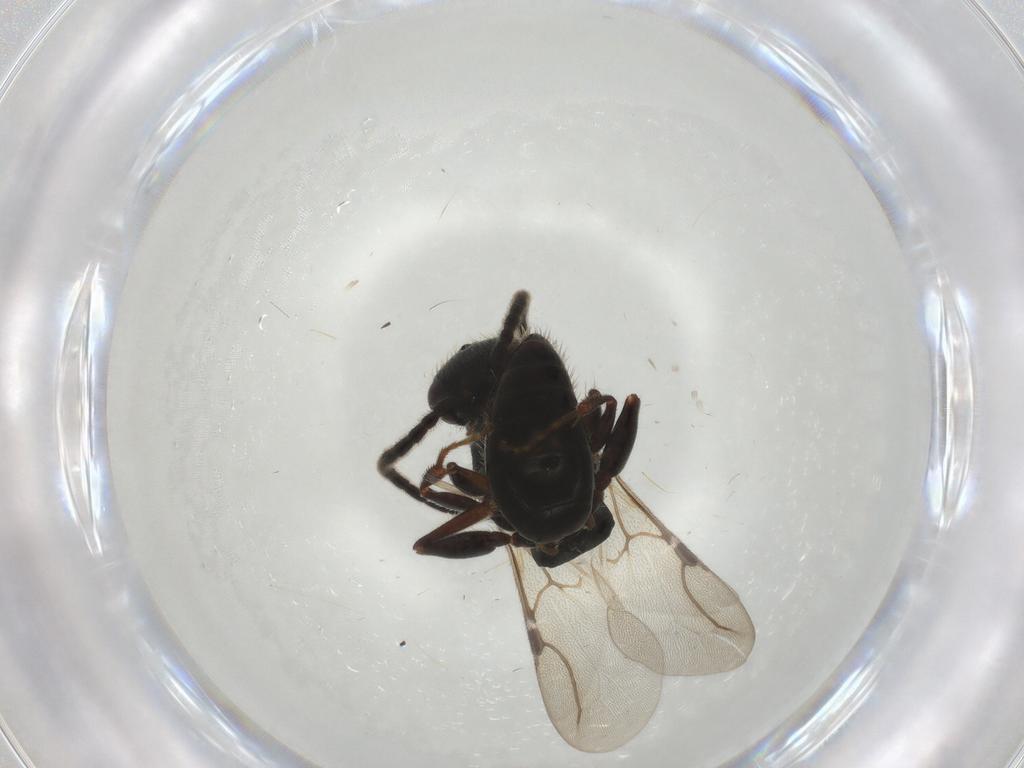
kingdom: Animalia
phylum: Arthropoda
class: Insecta
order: Hymenoptera
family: Bethylidae
